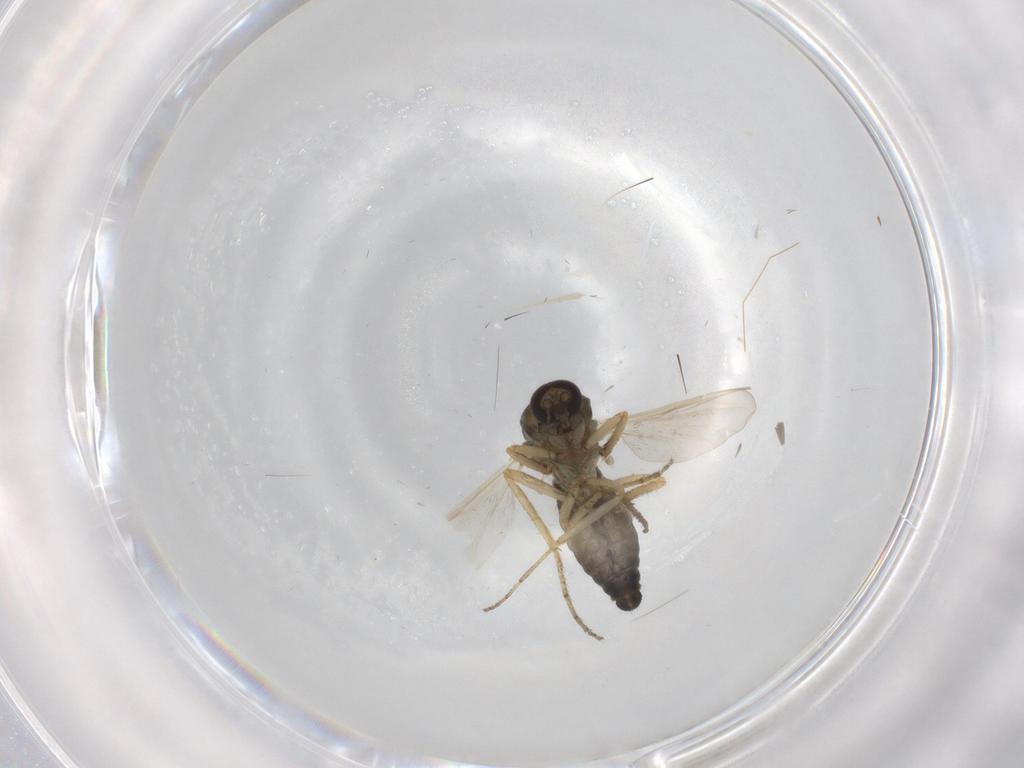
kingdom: Animalia
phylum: Arthropoda
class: Insecta
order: Diptera
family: Ceratopogonidae
